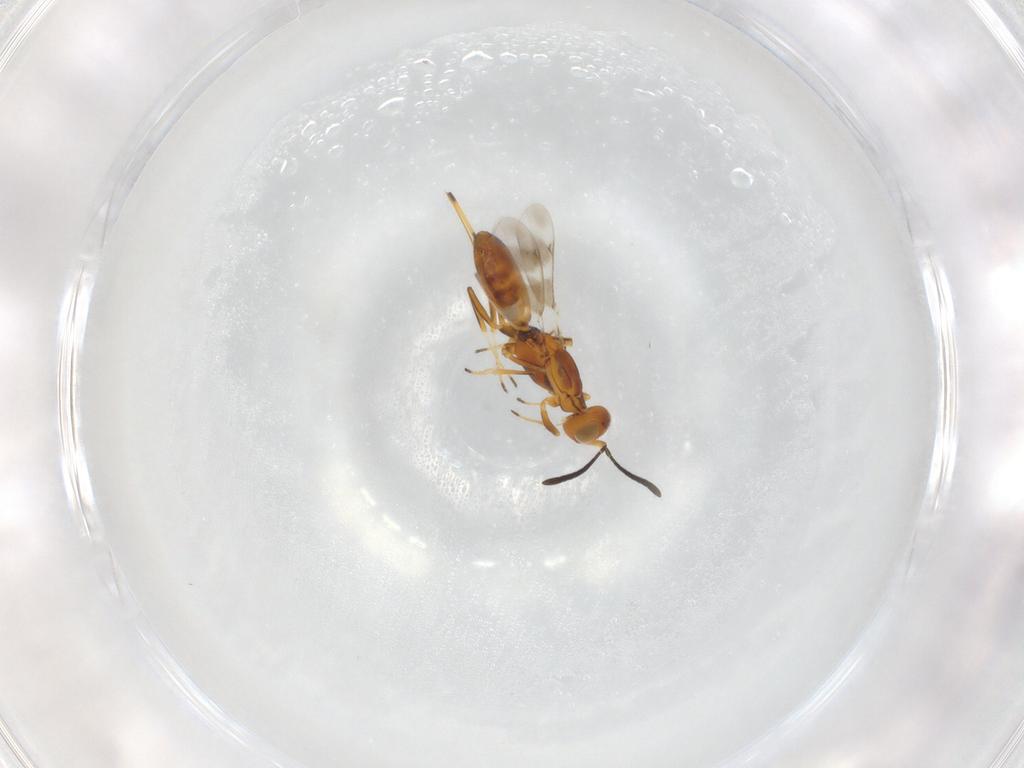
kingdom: Animalia
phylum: Arthropoda
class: Insecta
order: Hymenoptera
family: Eupelmidae
